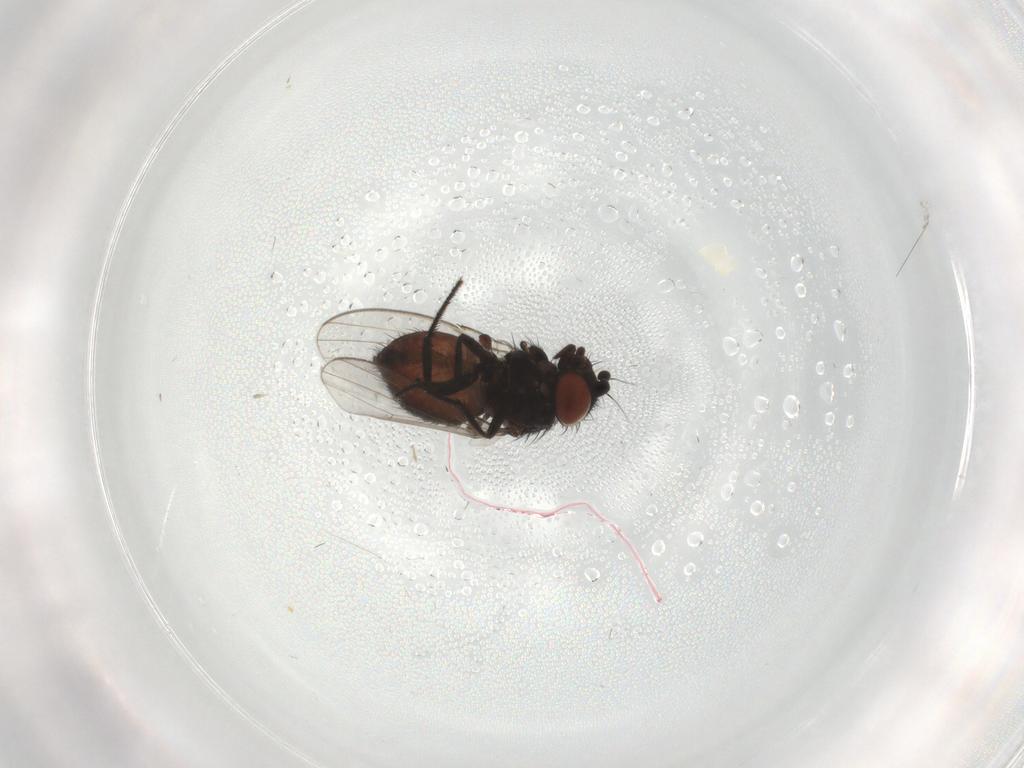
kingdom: Animalia
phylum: Arthropoda
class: Insecta
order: Diptera
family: Milichiidae
